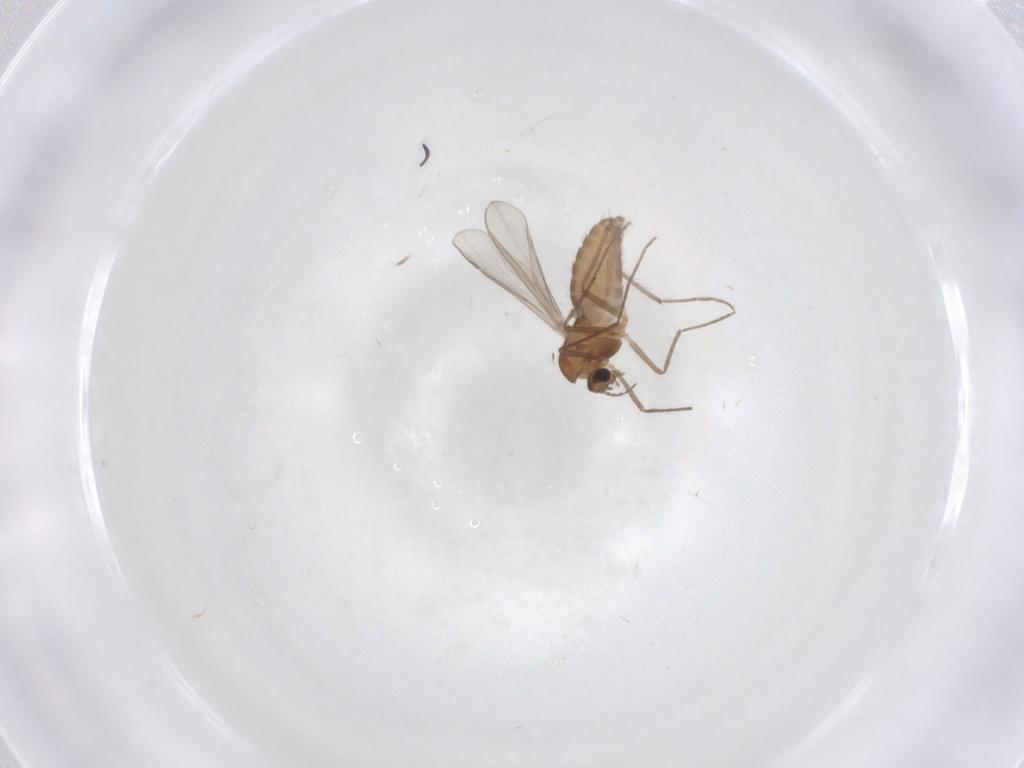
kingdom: Animalia
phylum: Arthropoda
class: Insecta
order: Diptera
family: Chironomidae
